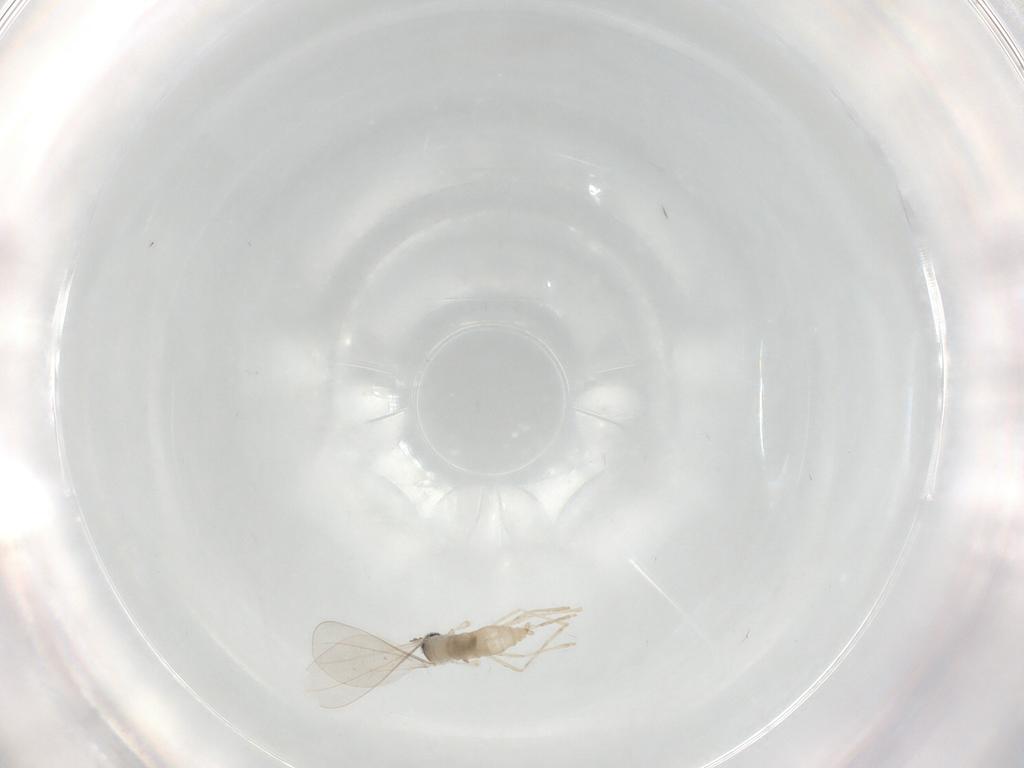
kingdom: Animalia
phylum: Arthropoda
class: Insecta
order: Diptera
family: Cecidomyiidae
